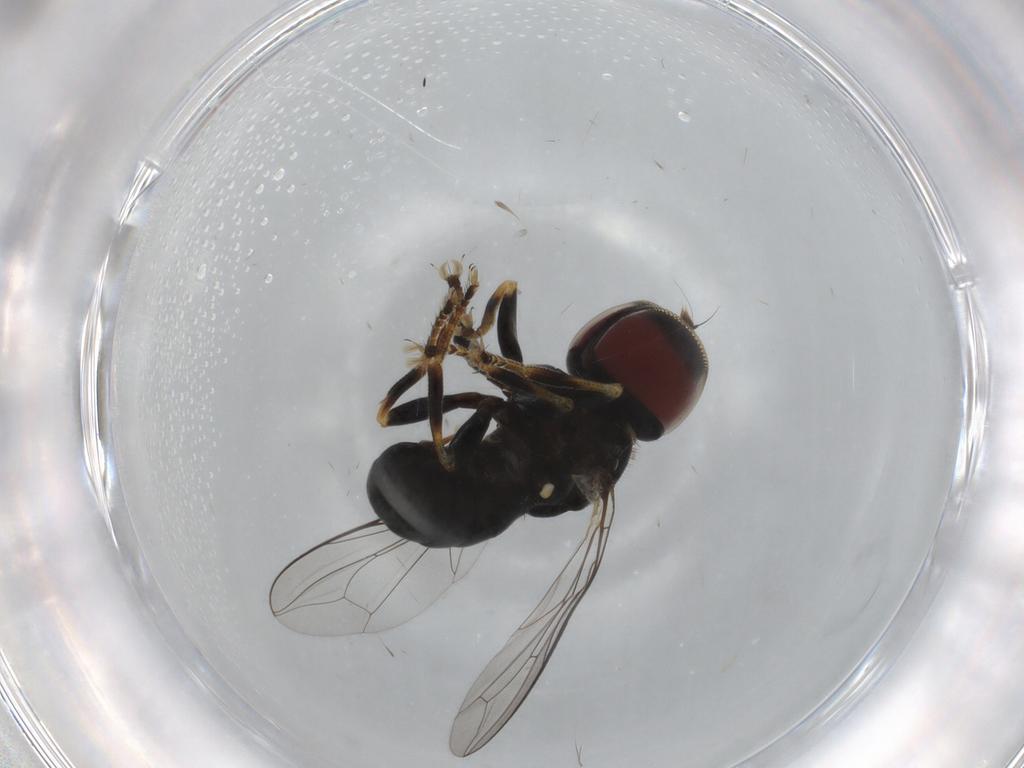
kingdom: Animalia
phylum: Arthropoda
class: Insecta
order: Diptera
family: Pipunculidae
